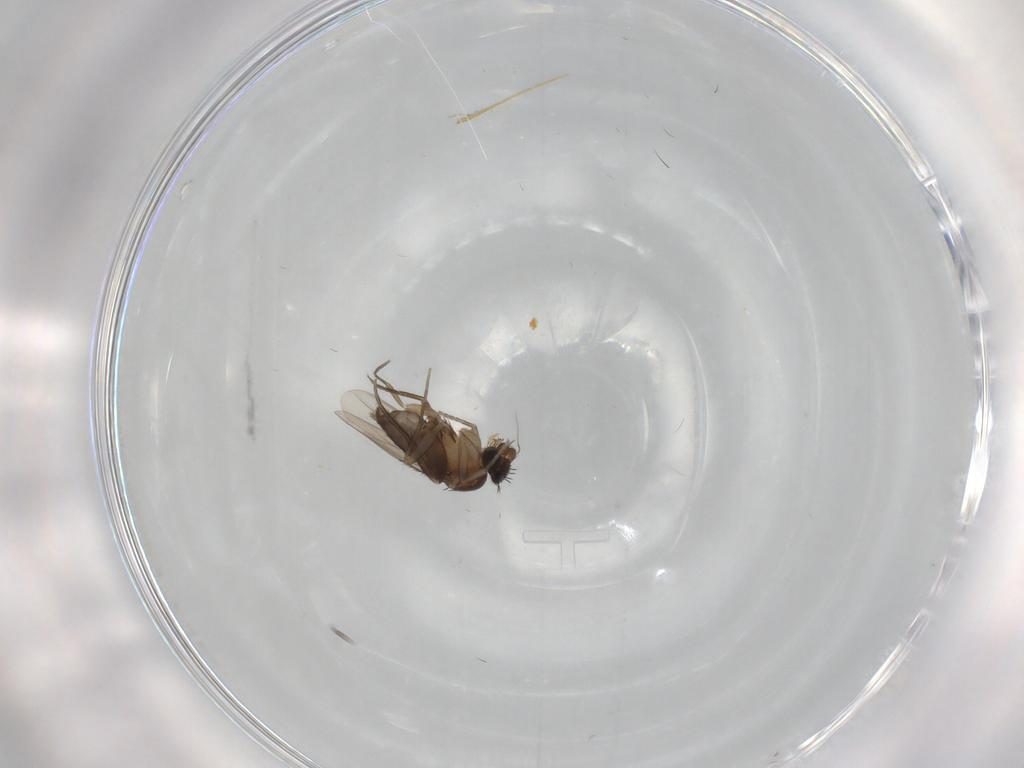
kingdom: Animalia
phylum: Arthropoda
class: Insecta
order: Diptera
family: Phoridae
